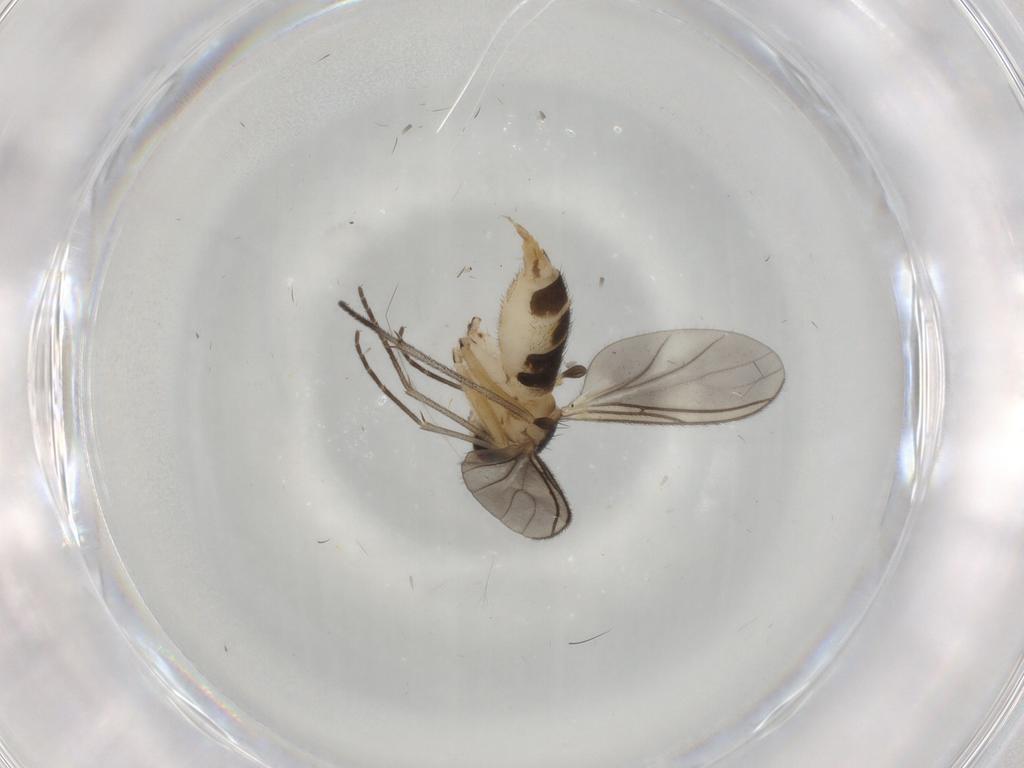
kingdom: Animalia
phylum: Arthropoda
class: Insecta
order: Diptera
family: Sciaridae
